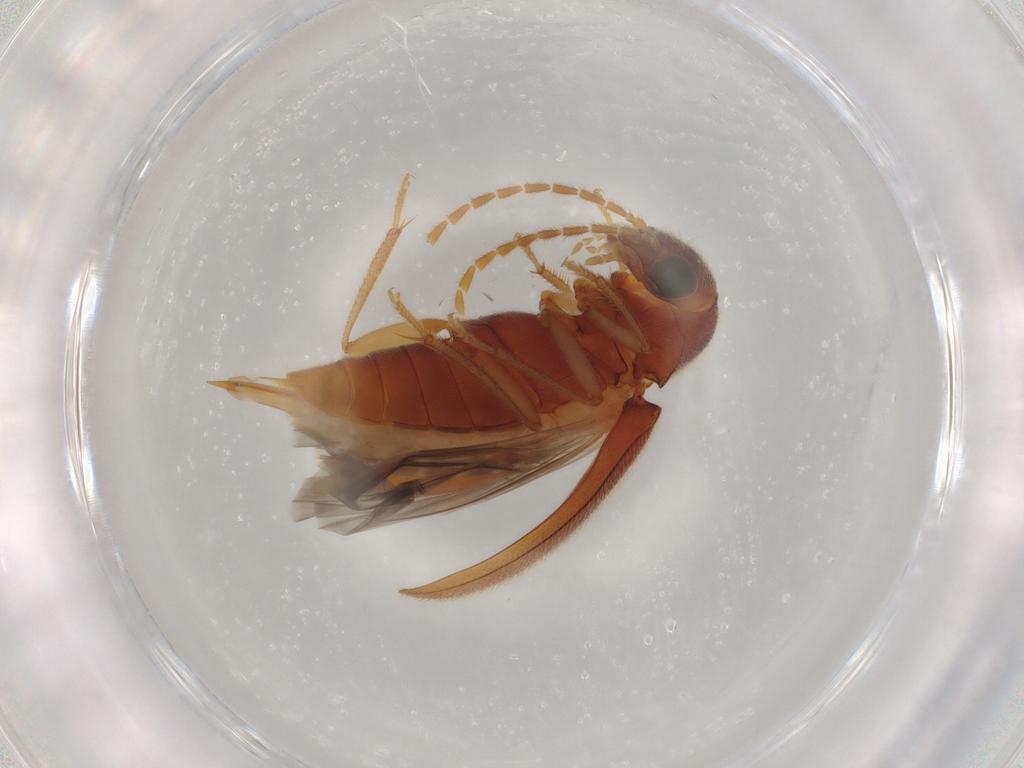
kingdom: Animalia
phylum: Arthropoda
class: Insecta
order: Coleoptera
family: Ptilodactylidae
